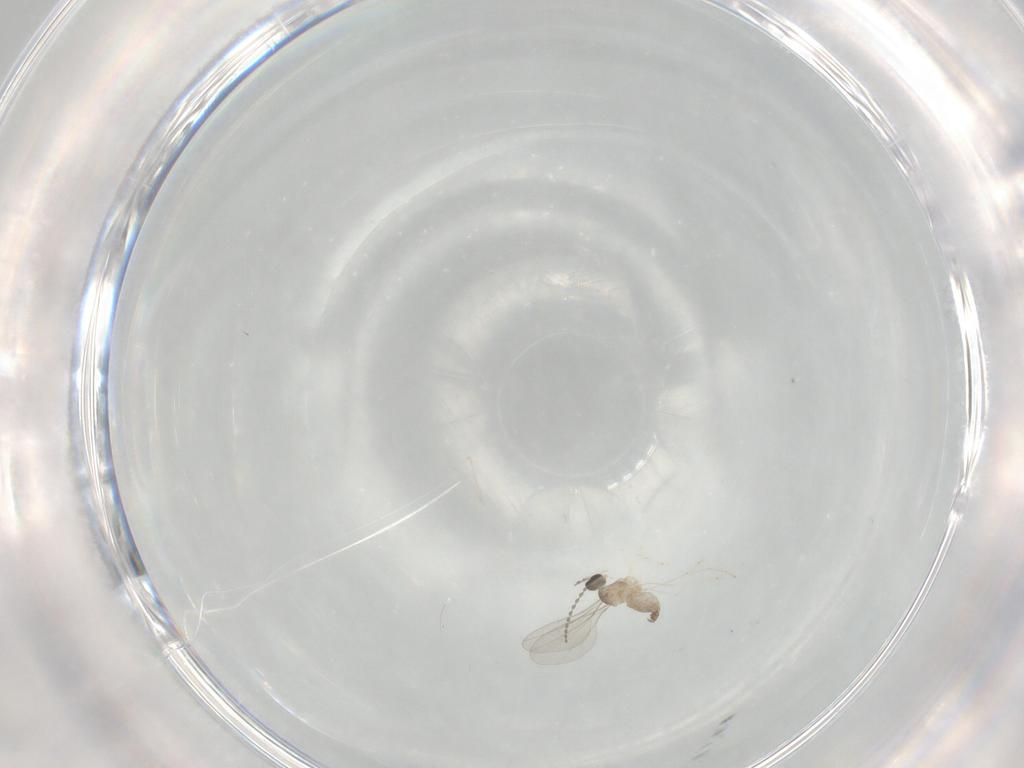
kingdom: Animalia
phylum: Arthropoda
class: Insecta
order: Diptera
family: Cecidomyiidae
